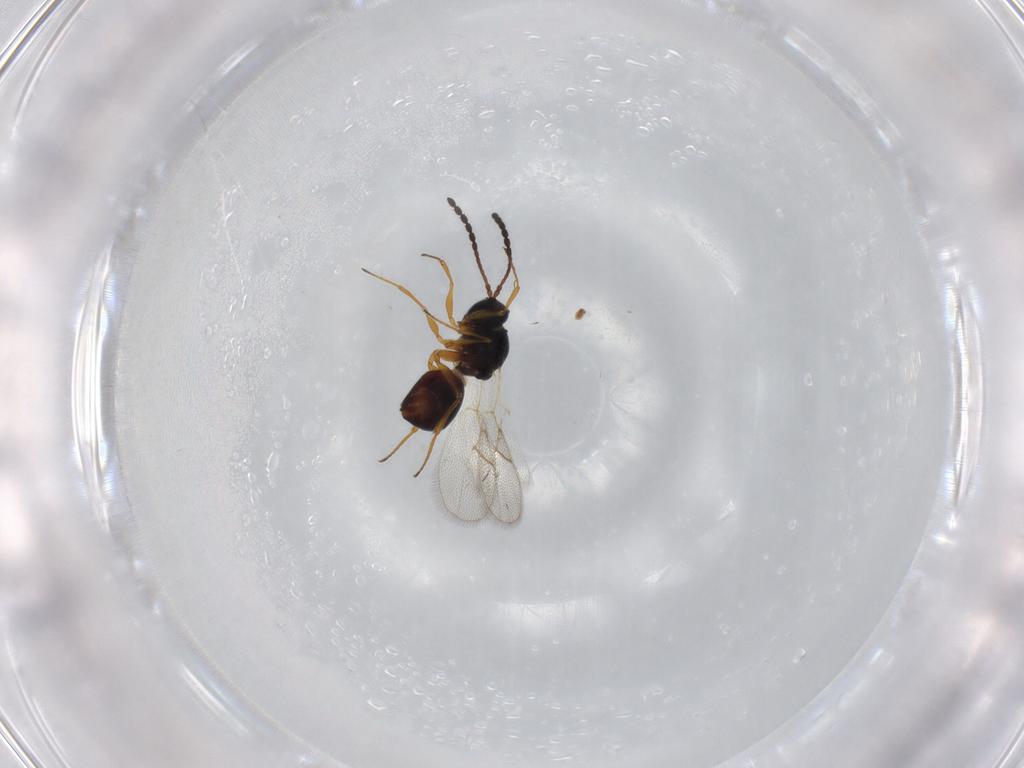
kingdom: Animalia
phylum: Arthropoda
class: Insecta
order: Hymenoptera
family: Figitidae
